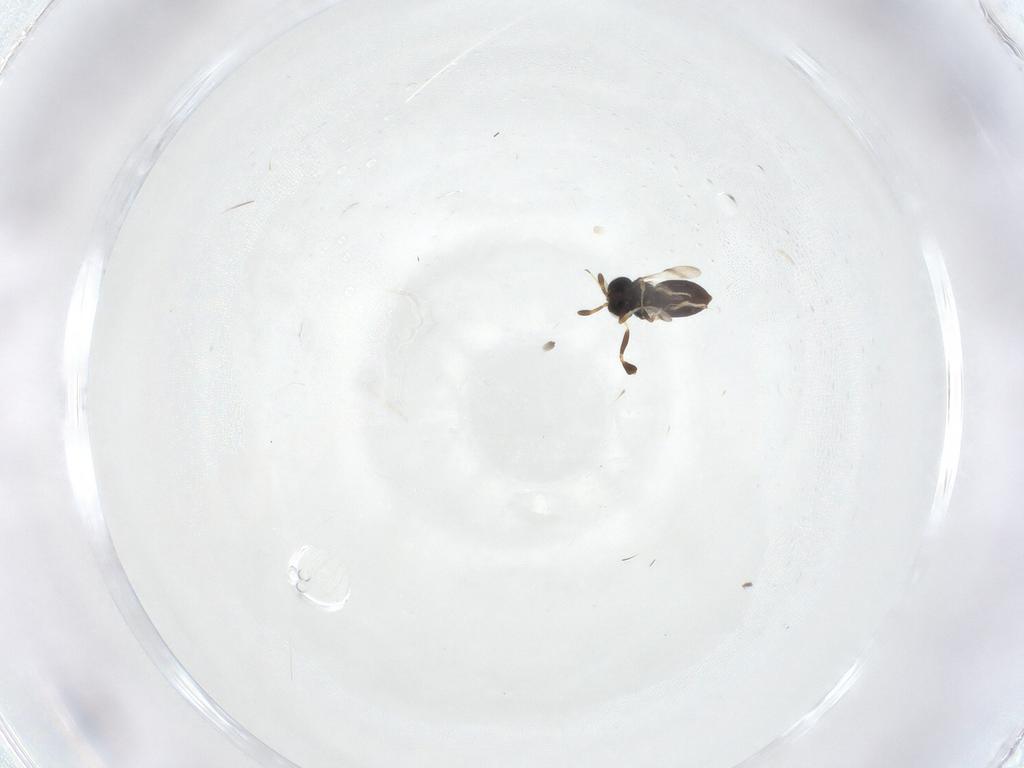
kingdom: Animalia
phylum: Arthropoda
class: Insecta
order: Hymenoptera
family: Scelionidae
